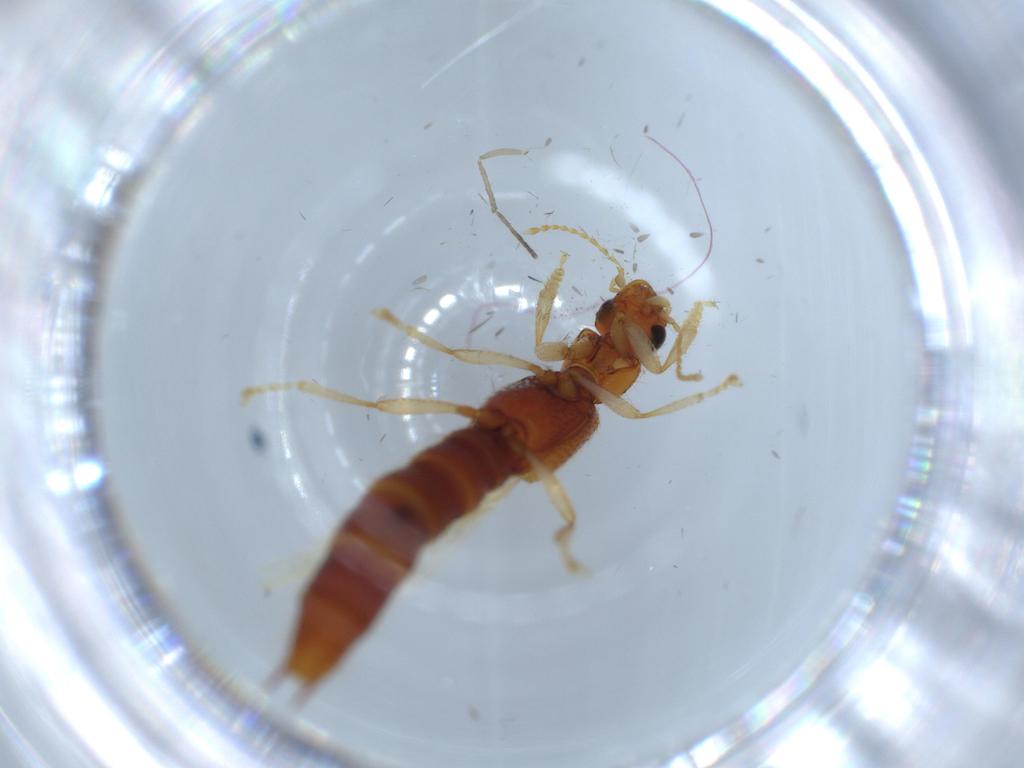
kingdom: Animalia
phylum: Arthropoda
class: Insecta
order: Coleoptera
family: Staphylinidae
